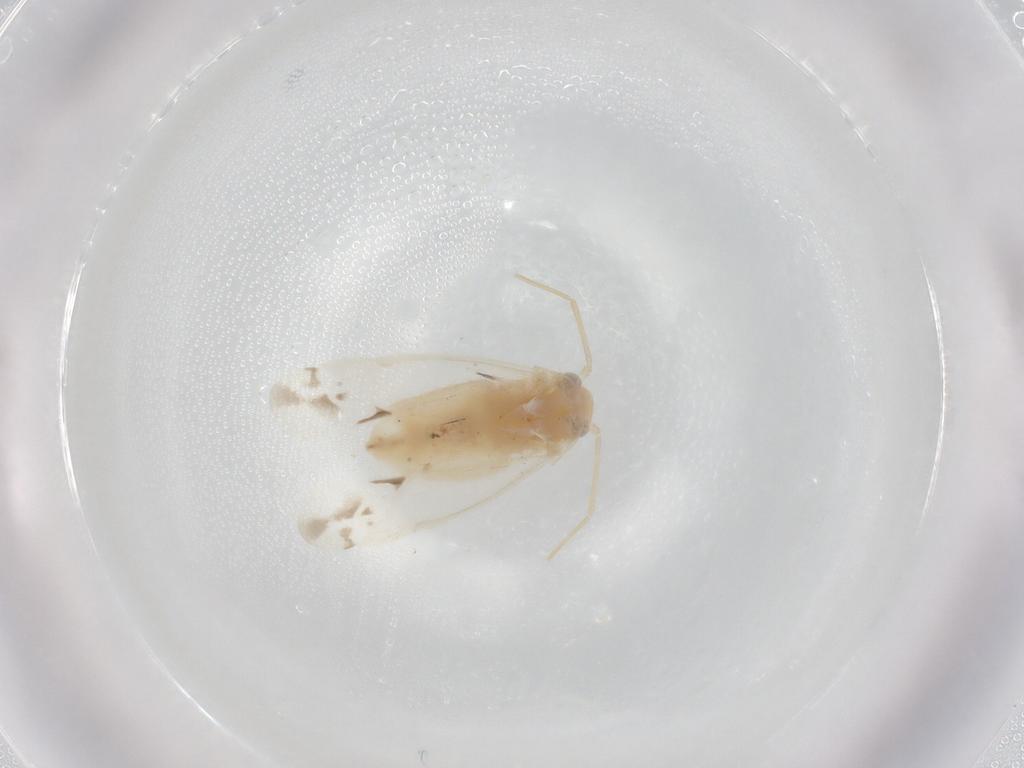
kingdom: Animalia
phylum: Arthropoda
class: Insecta
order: Hemiptera
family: Miridae
